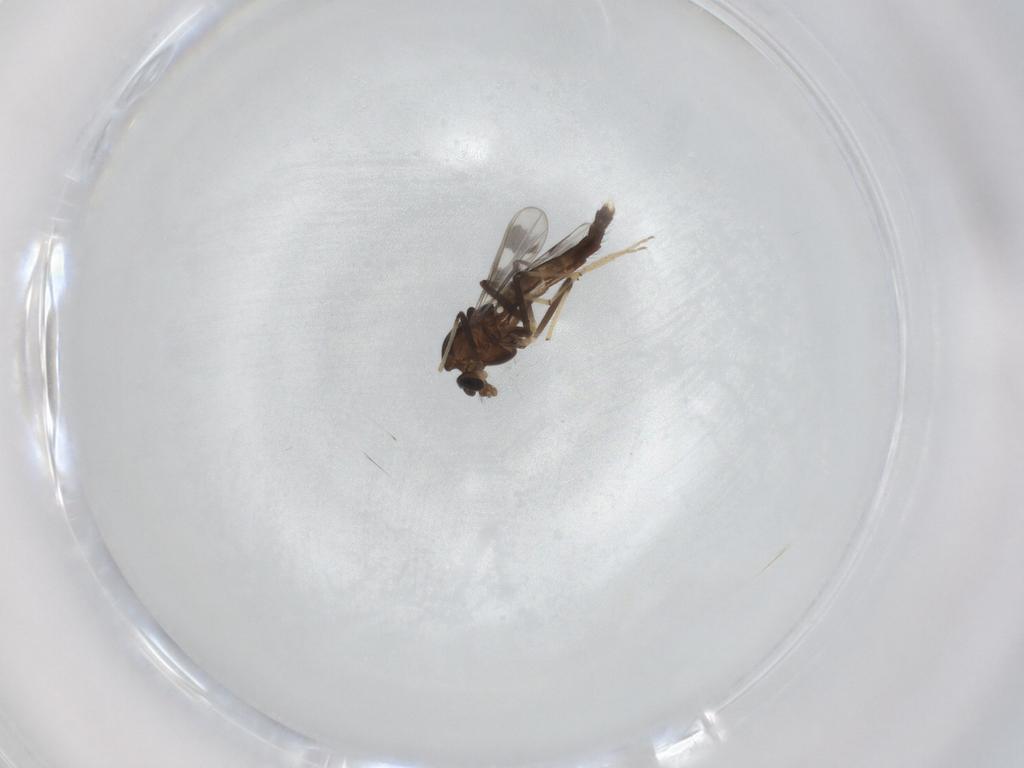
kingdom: Animalia
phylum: Arthropoda
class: Insecta
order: Diptera
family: Chironomidae
